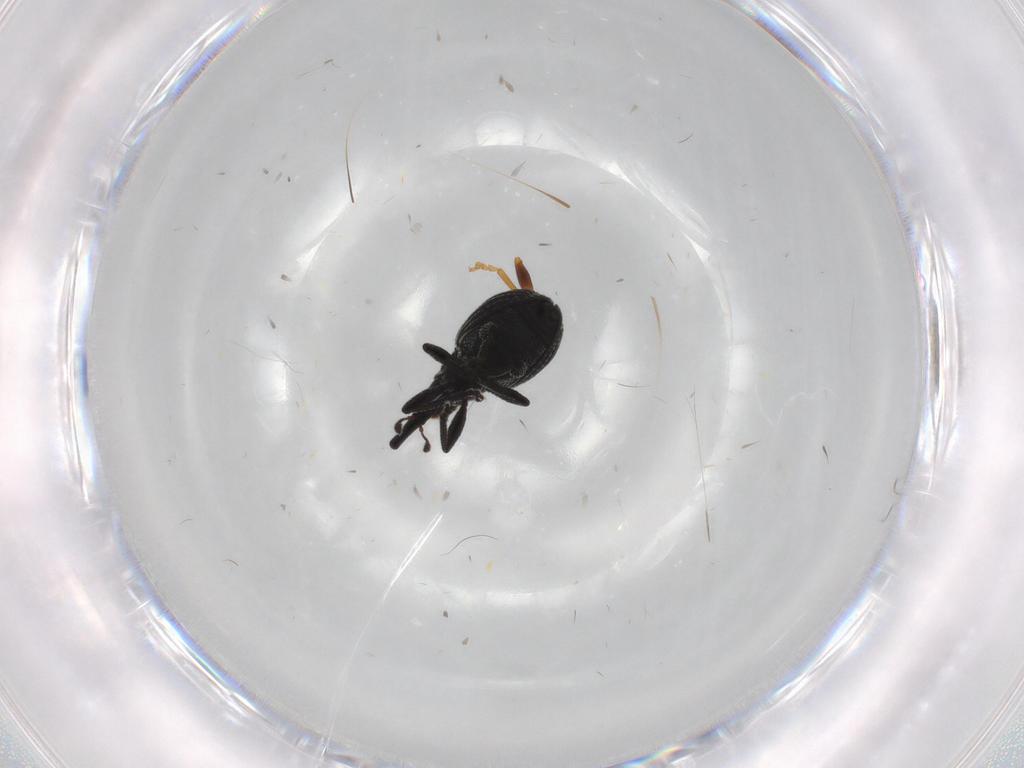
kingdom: Animalia
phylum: Arthropoda
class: Insecta
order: Coleoptera
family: Brentidae
